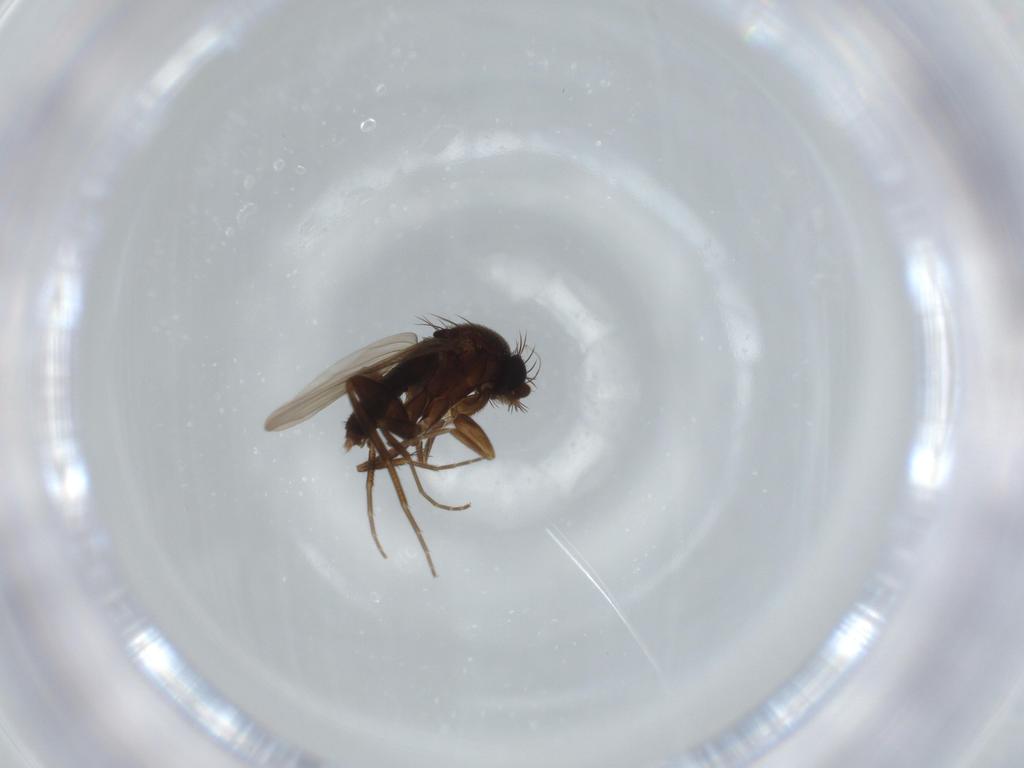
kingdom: Animalia
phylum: Arthropoda
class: Insecta
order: Diptera
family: Phoridae
